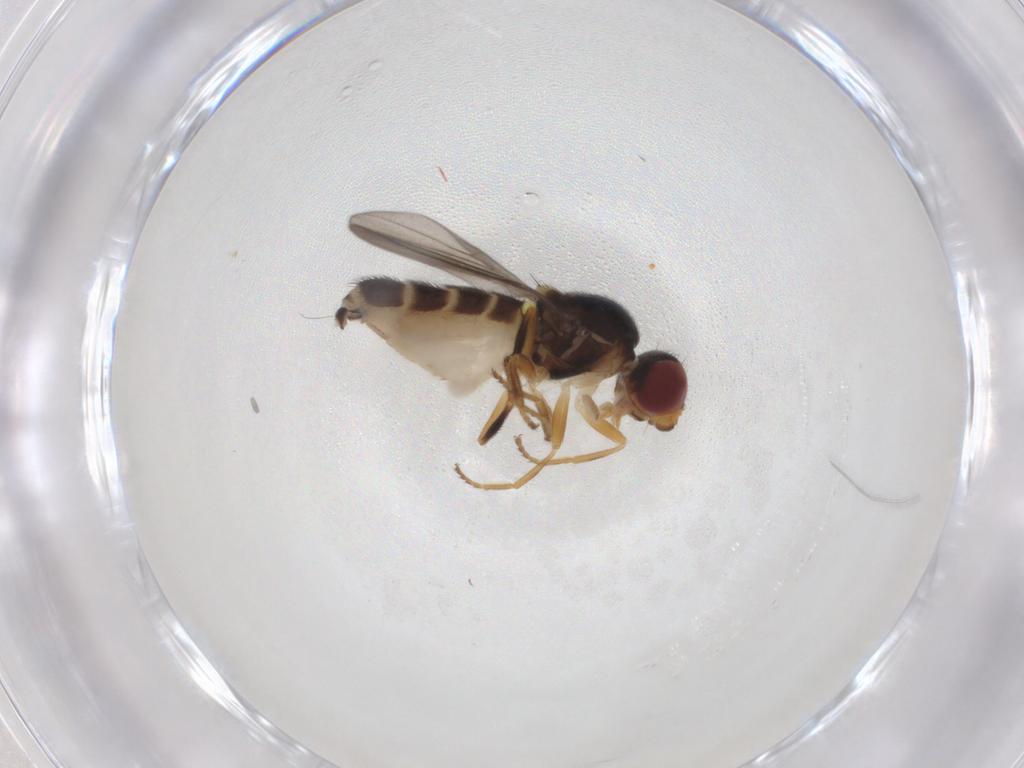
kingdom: Animalia
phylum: Arthropoda
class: Insecta
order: Diptera
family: Chloropidae
